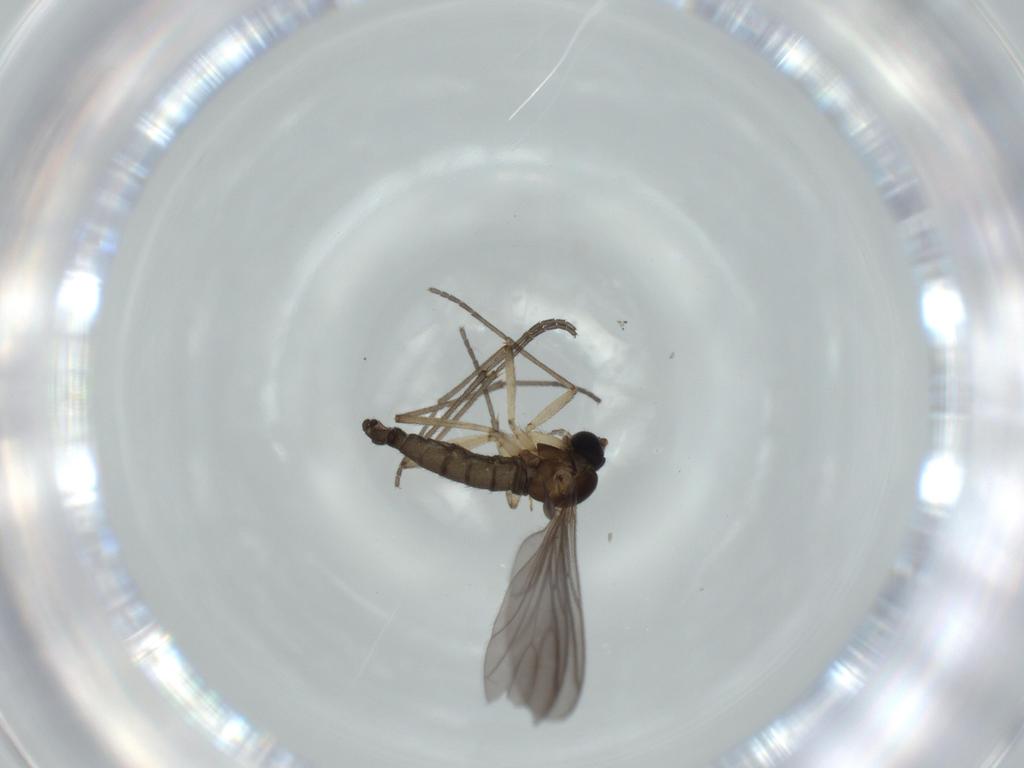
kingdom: Animalia
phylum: Arthropoda
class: Insecta
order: Diptera
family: Sciaridae
